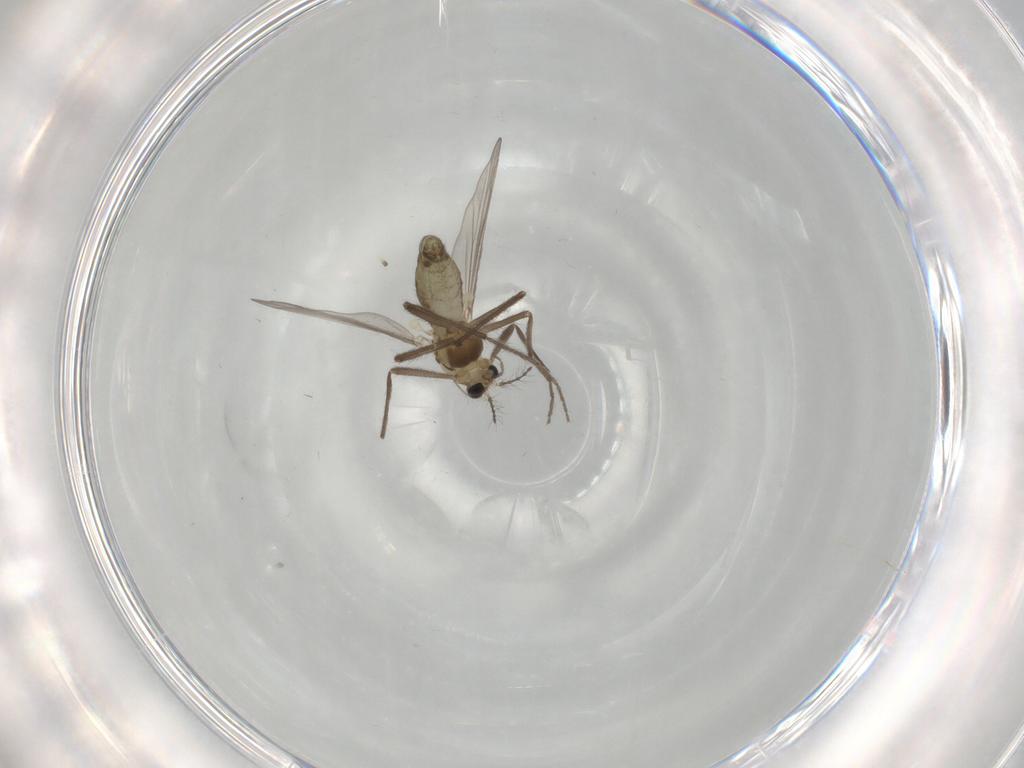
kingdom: Animalia
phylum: Arthropoda
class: Insecta
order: Diptera
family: Chironomidae
